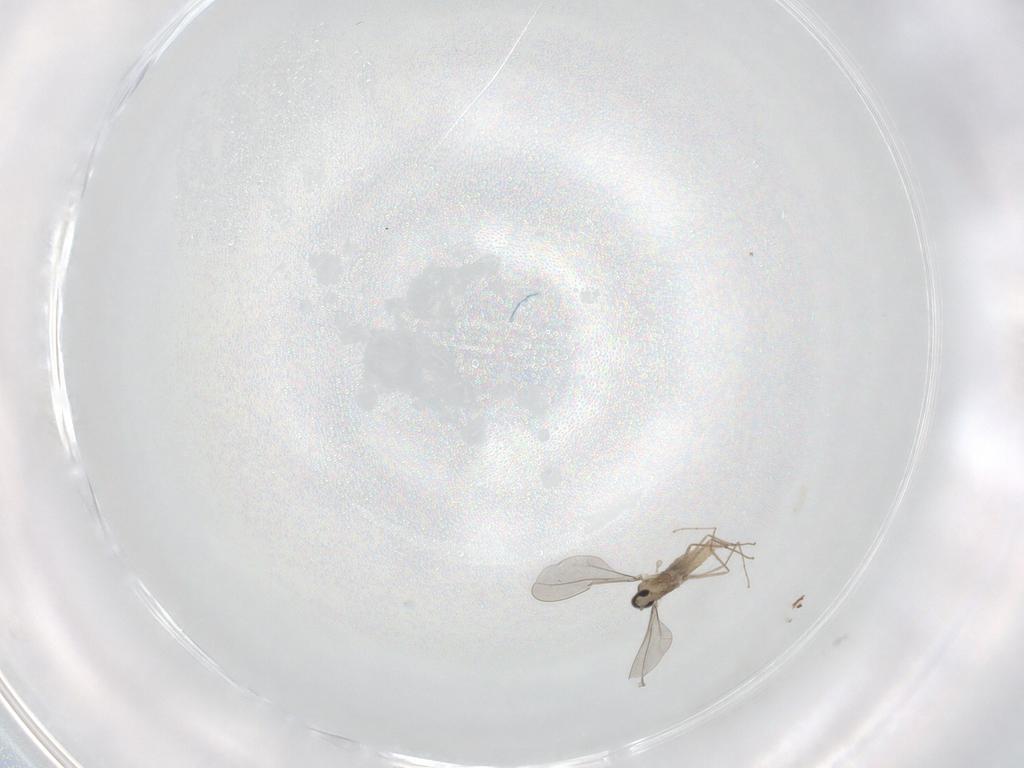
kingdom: Animalia
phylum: Arthropoda
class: Insecta
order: Diptera
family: Cecidomyiidae
